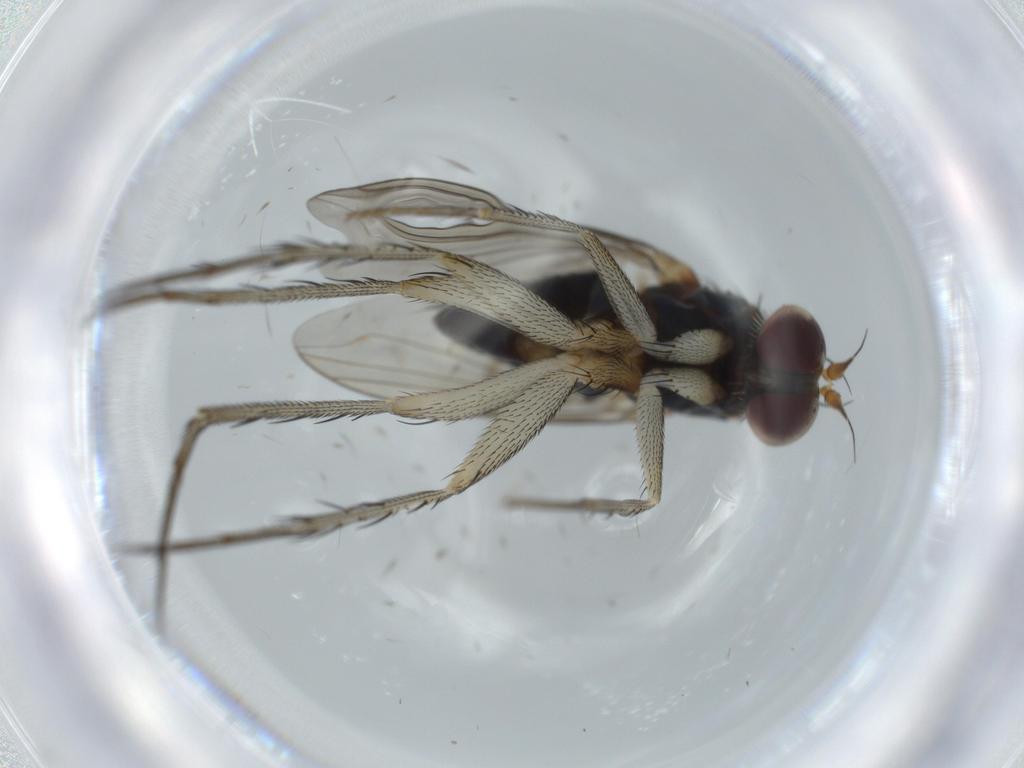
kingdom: Animalia
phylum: Arthropoda
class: Insecta
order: Diptera
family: Dolichopodidae
